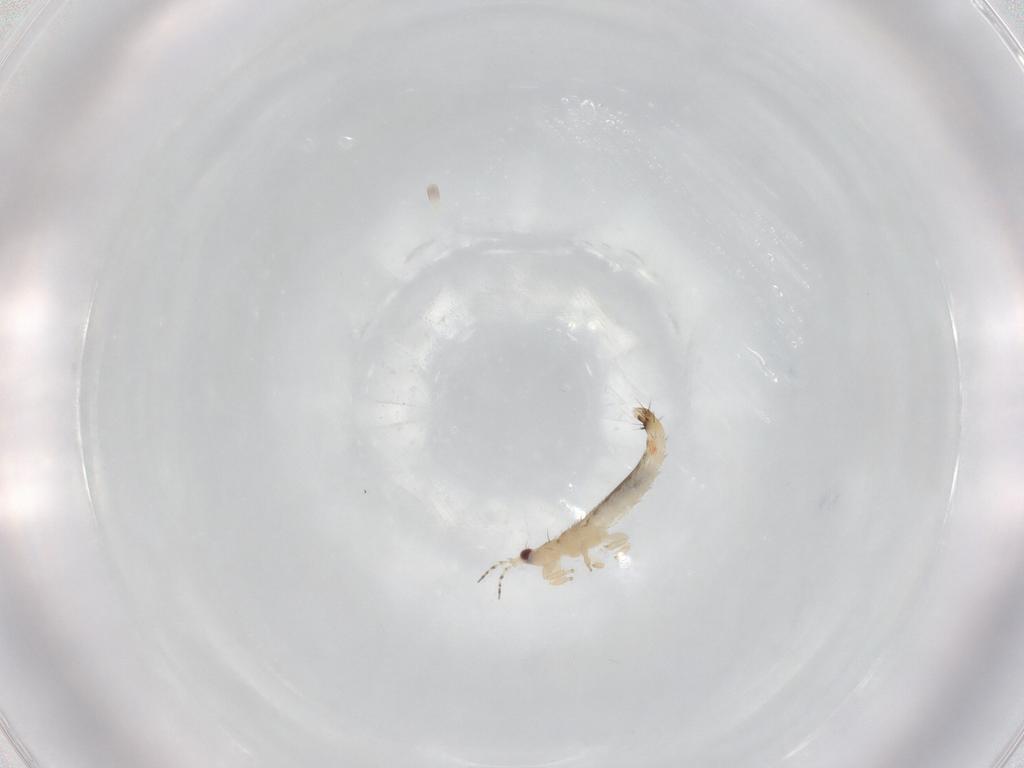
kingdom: Animalia
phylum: Arthropoda
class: Insecta
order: Thysanoptera
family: Thripidae
